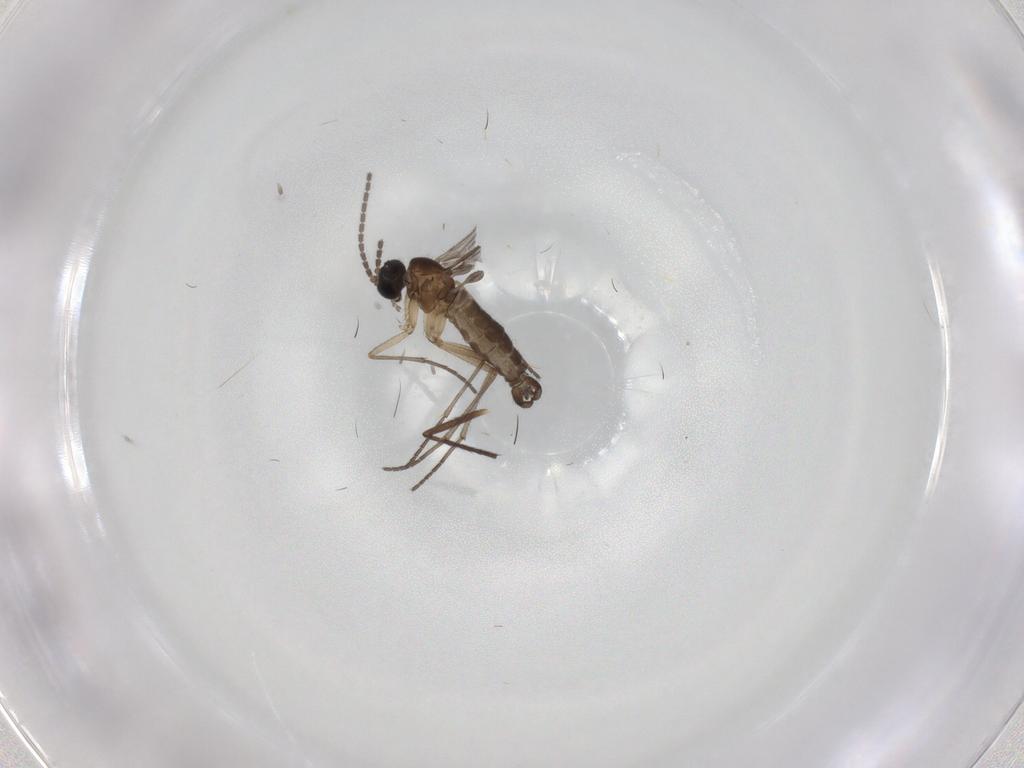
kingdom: Animalia
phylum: Arthropoda
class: Insecta
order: Diptera
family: Sciaridae
